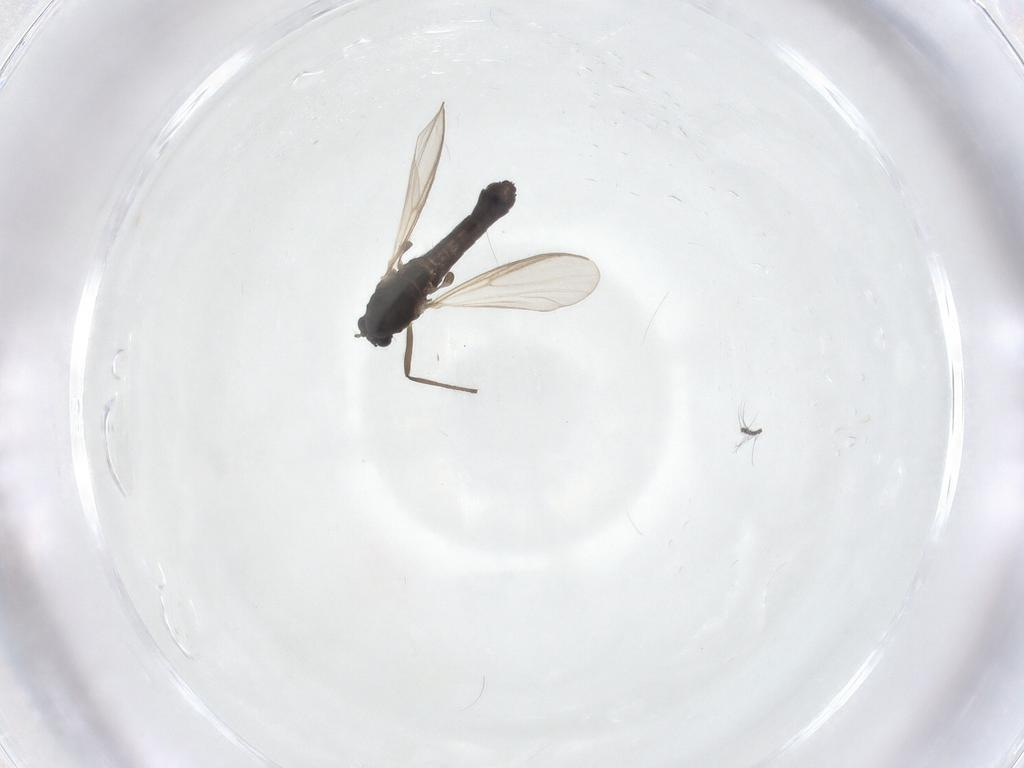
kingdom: Animalia
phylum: Arthropoda
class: Insecta
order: Diptera
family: Chironomidae
